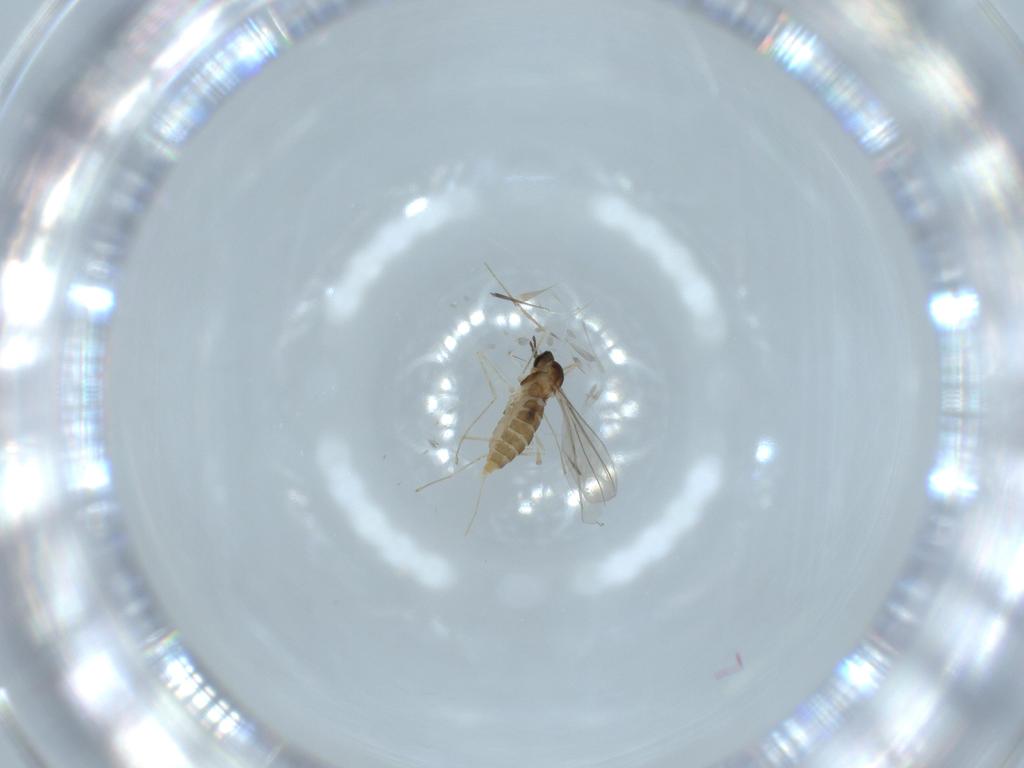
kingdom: Animalia
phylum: Arthropoda
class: Insecta
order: Diptera
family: Cecidomyiidae
